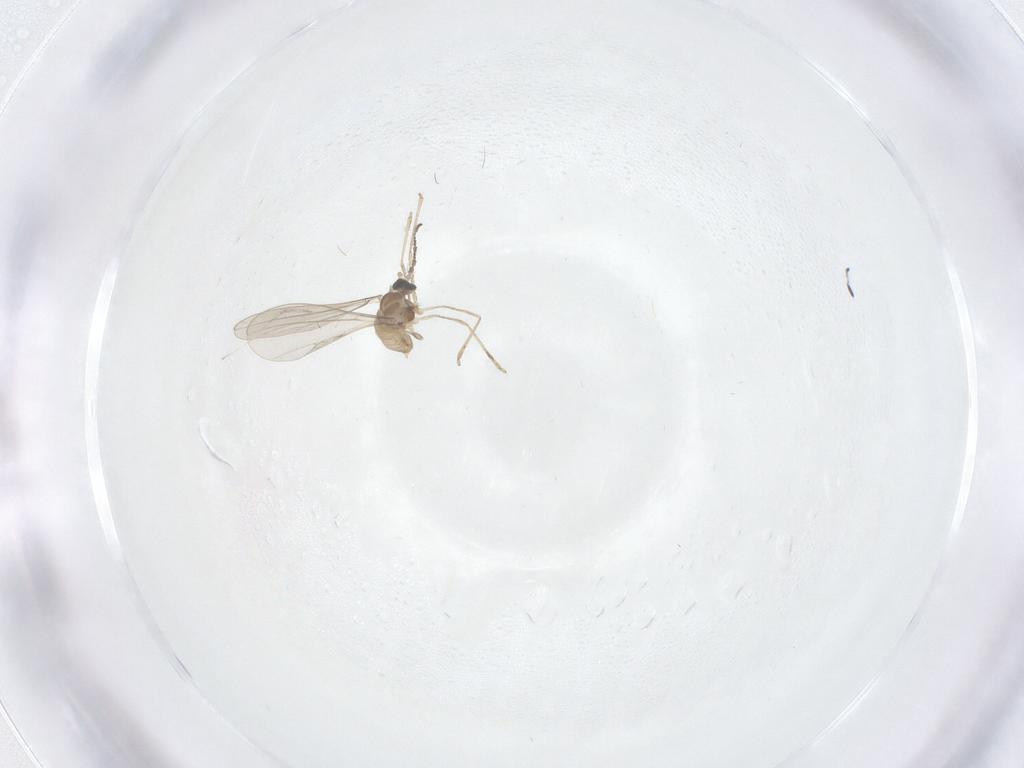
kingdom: Animalia
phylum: Arthropoda
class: Insecta
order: Diptera
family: Cecidomyiidae
